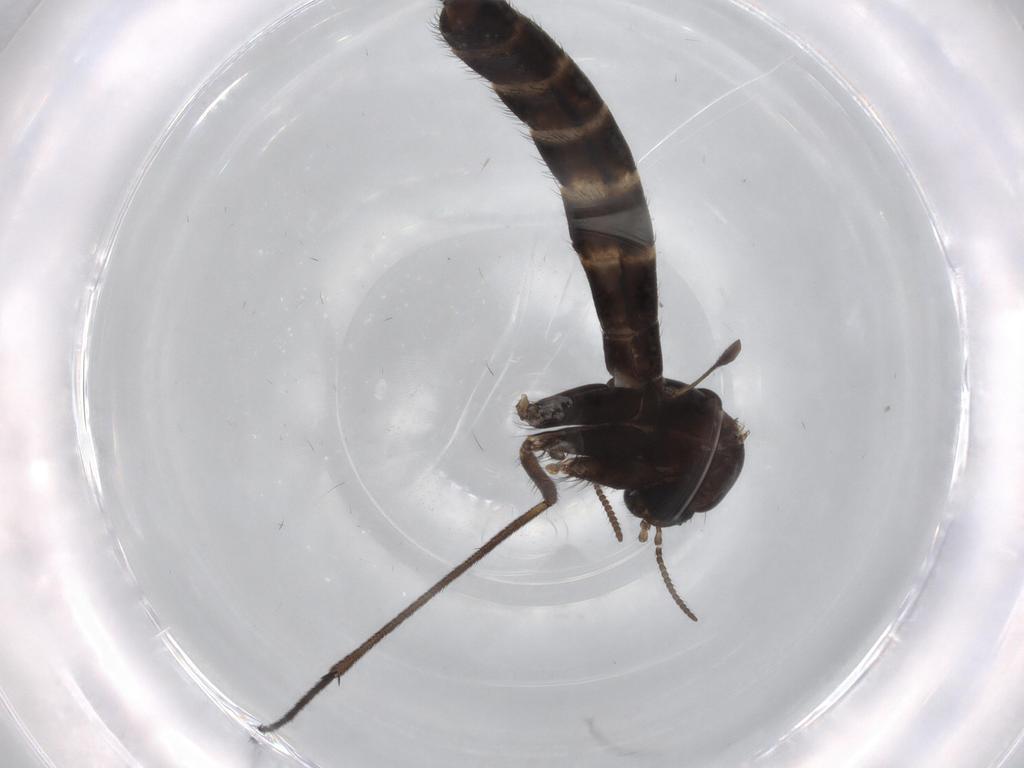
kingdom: Animalia
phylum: Arthropoda
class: Insecta
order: Diptera
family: Ditomyiidae
